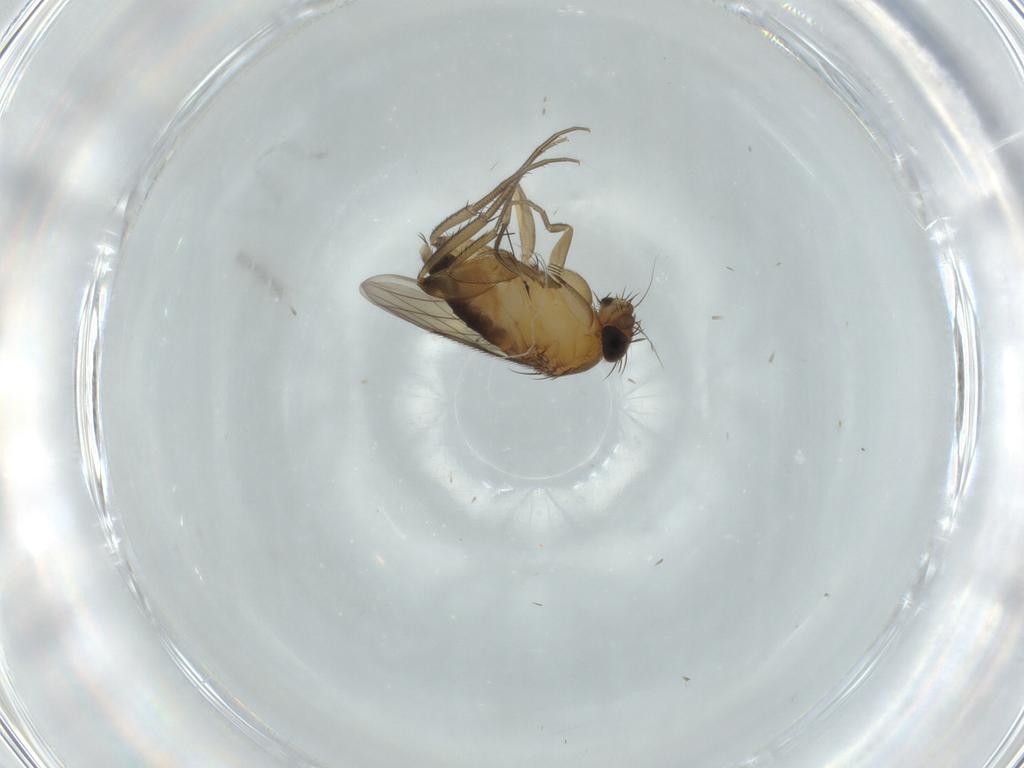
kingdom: Animalia
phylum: Arthropoda
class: Insecta
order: Diptera
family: Phoridae
